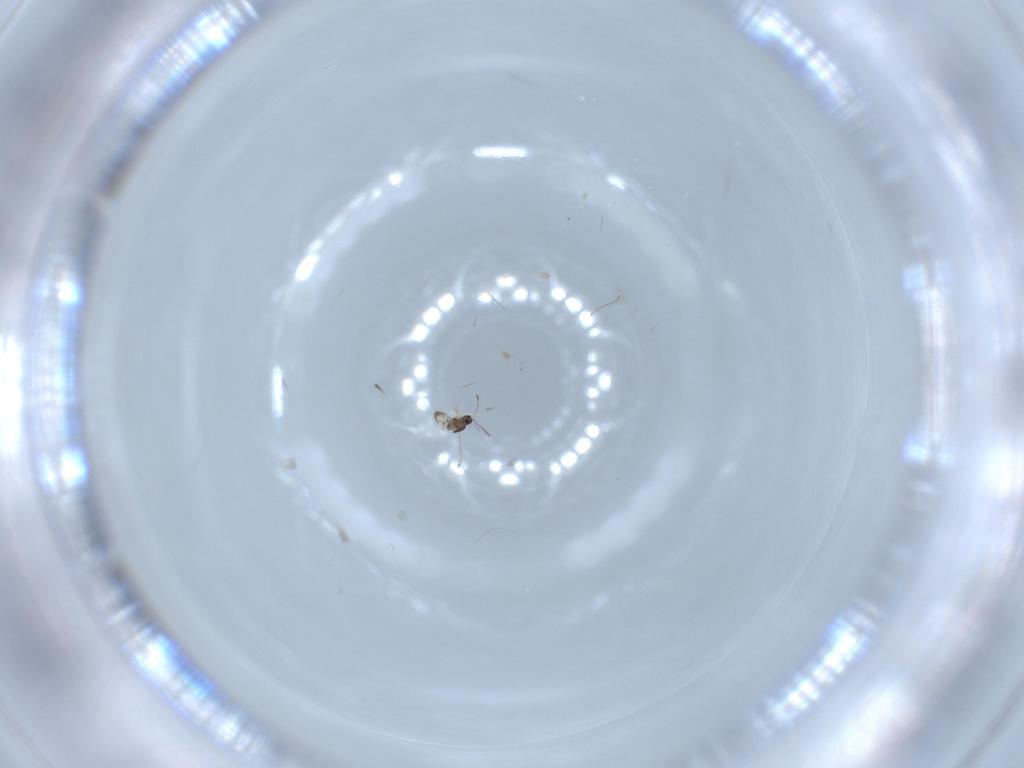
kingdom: Animalia
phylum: Arthropoda
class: Insecta
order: Hymenoptera
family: Mymaridae
